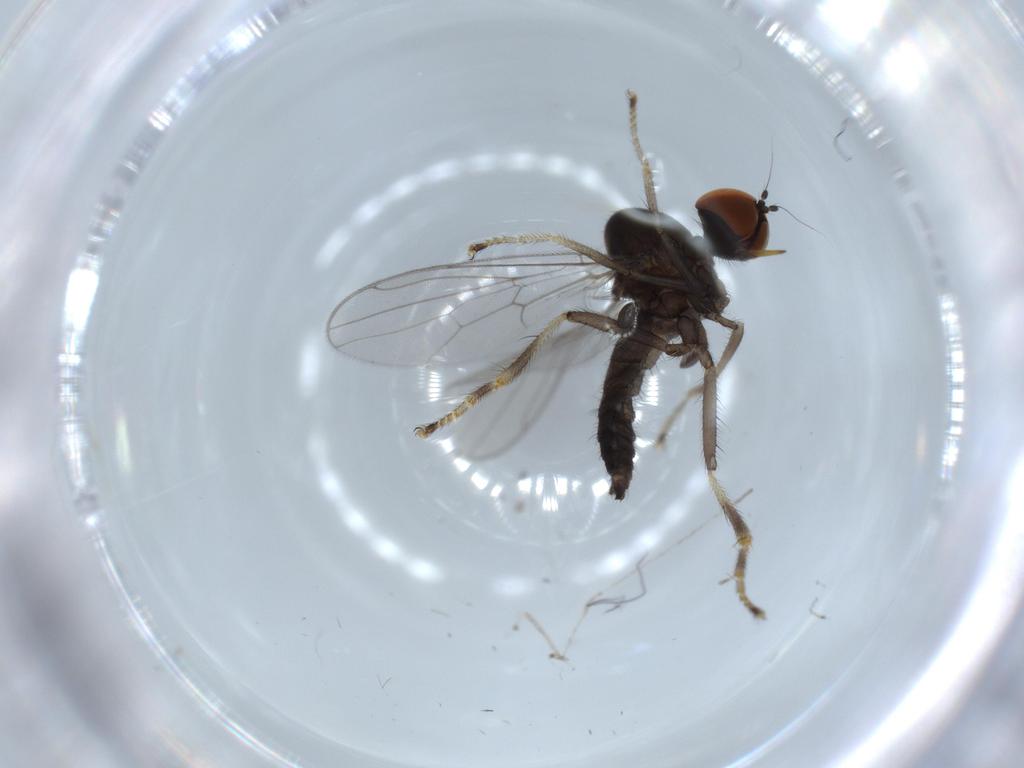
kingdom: Animalia
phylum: Arthropoda
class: Insecta
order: Diptera
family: Hybotidae
